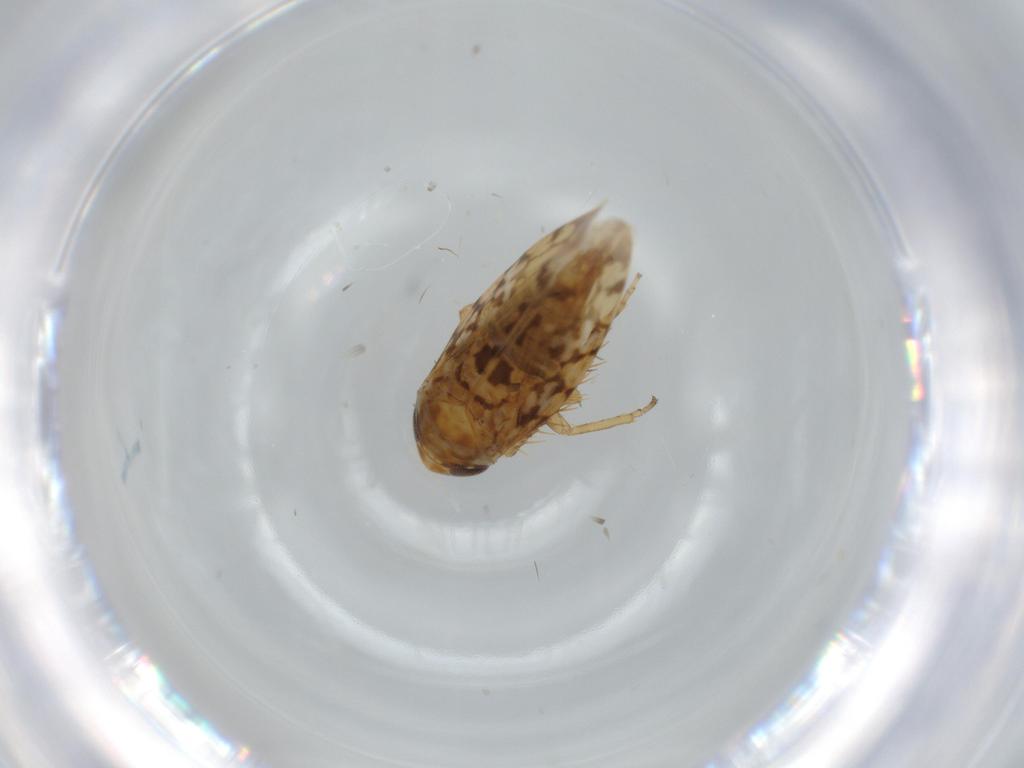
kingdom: Animalia
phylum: Arthropoda
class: Insecta
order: Hemiptera
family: Cicadellidae
